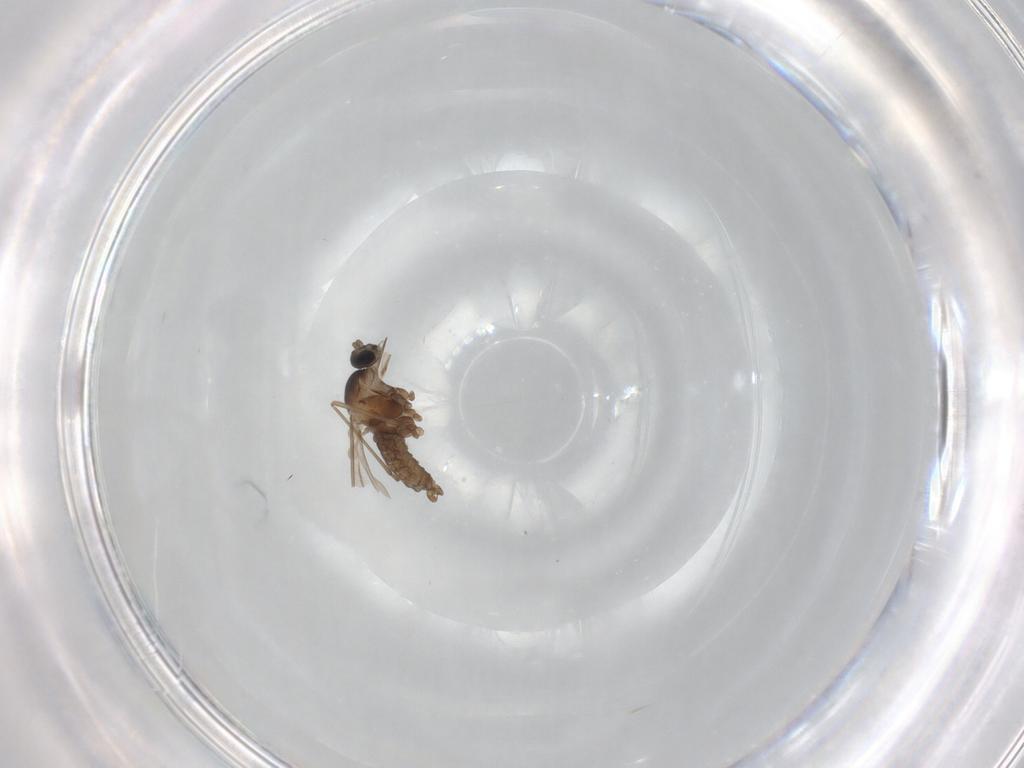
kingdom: Animalia
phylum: Arthropoda
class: Insecta
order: Diptera
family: Cecidomyiidae
